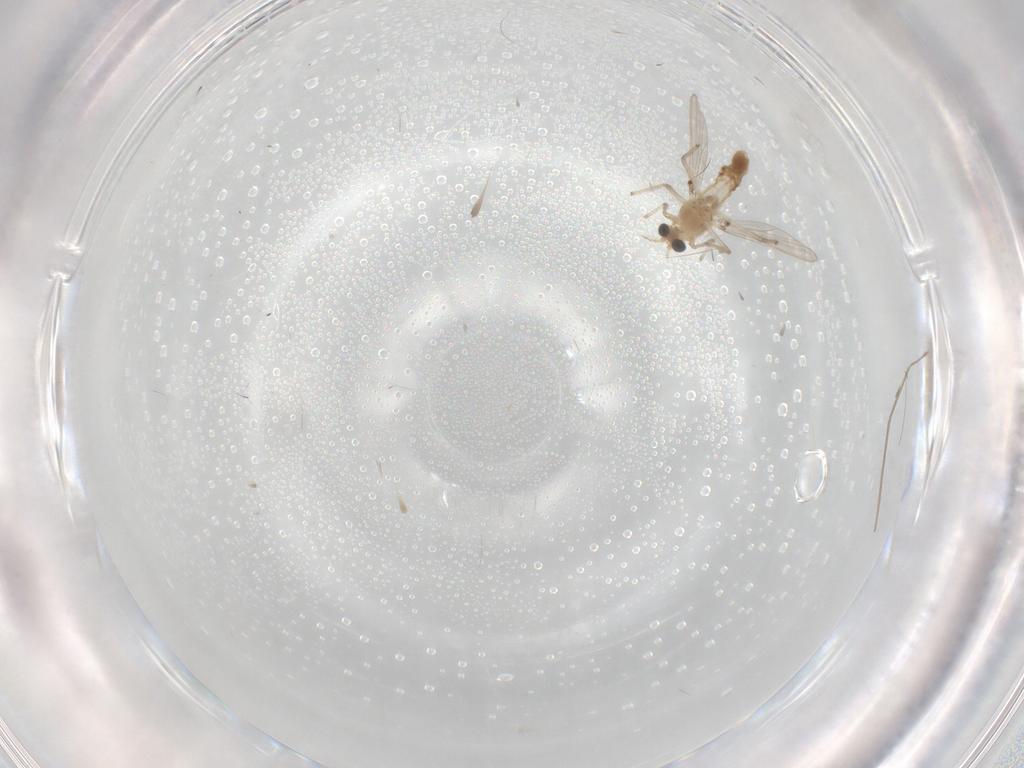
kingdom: Animalia
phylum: Arthropoda
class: Insecta
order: Diptera
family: Chironomidae
